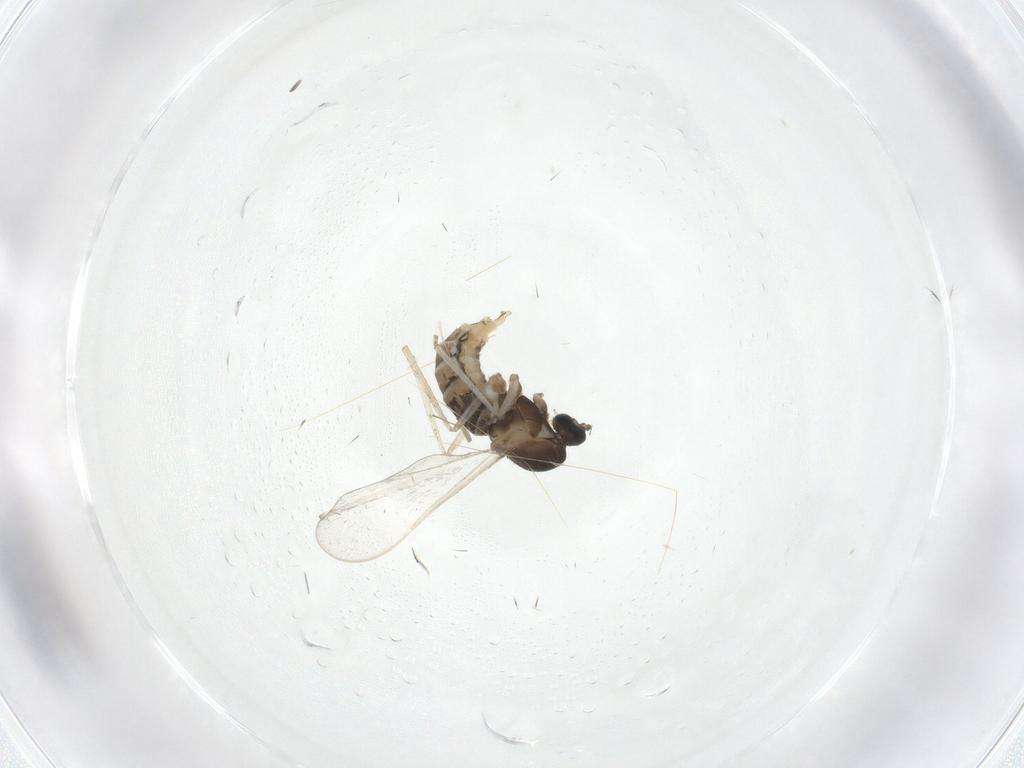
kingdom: Animalia
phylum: Arthropoda
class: Insecta
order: Diptera
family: Cecidomyiidae
